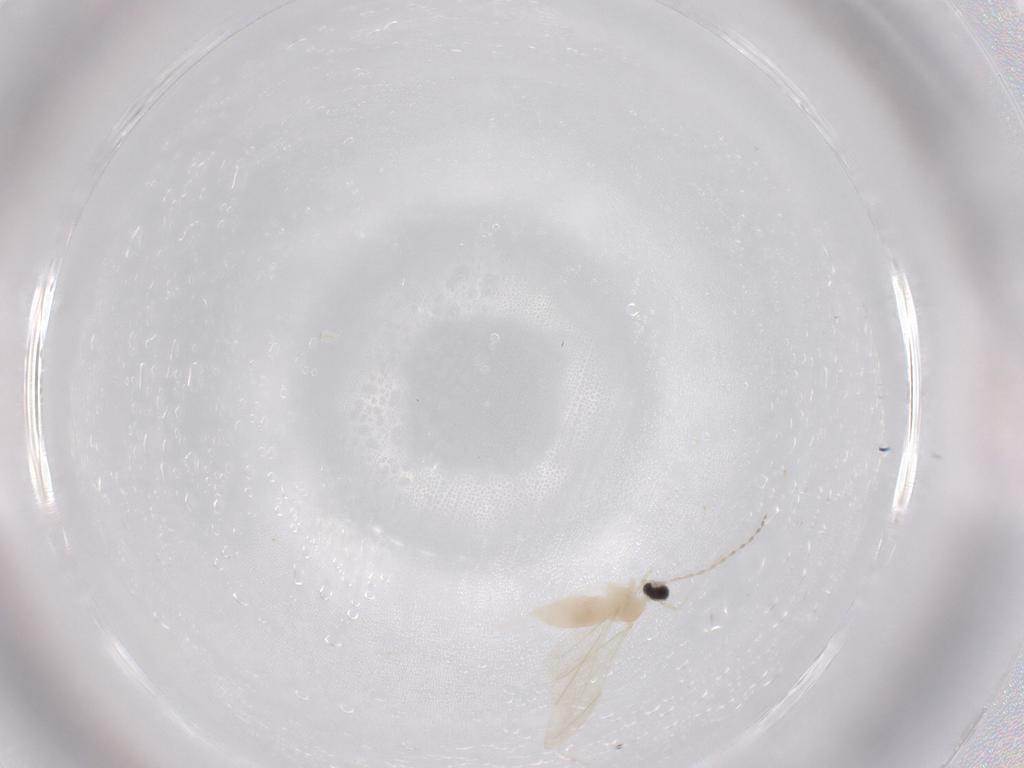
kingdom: Animalia
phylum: Arthropoda
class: Insecta
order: Diptera
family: Cecidomyiidae
